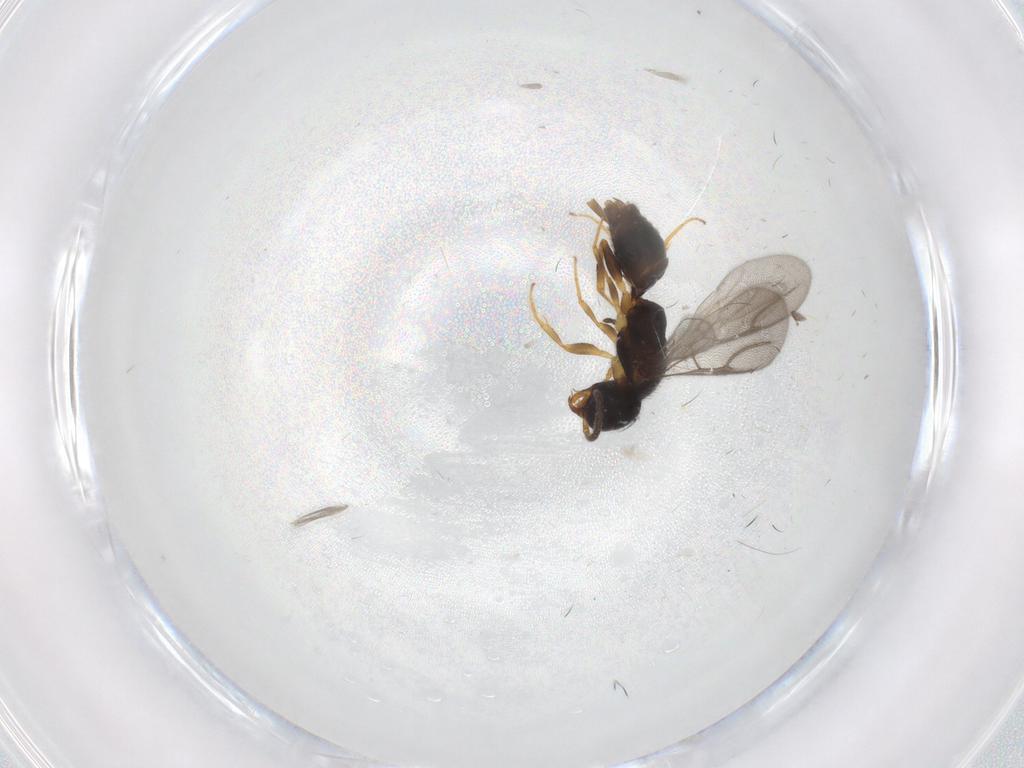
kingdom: Animalia
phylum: Arthropoda
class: Insecta
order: Hymenoptera
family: Bethylidae
